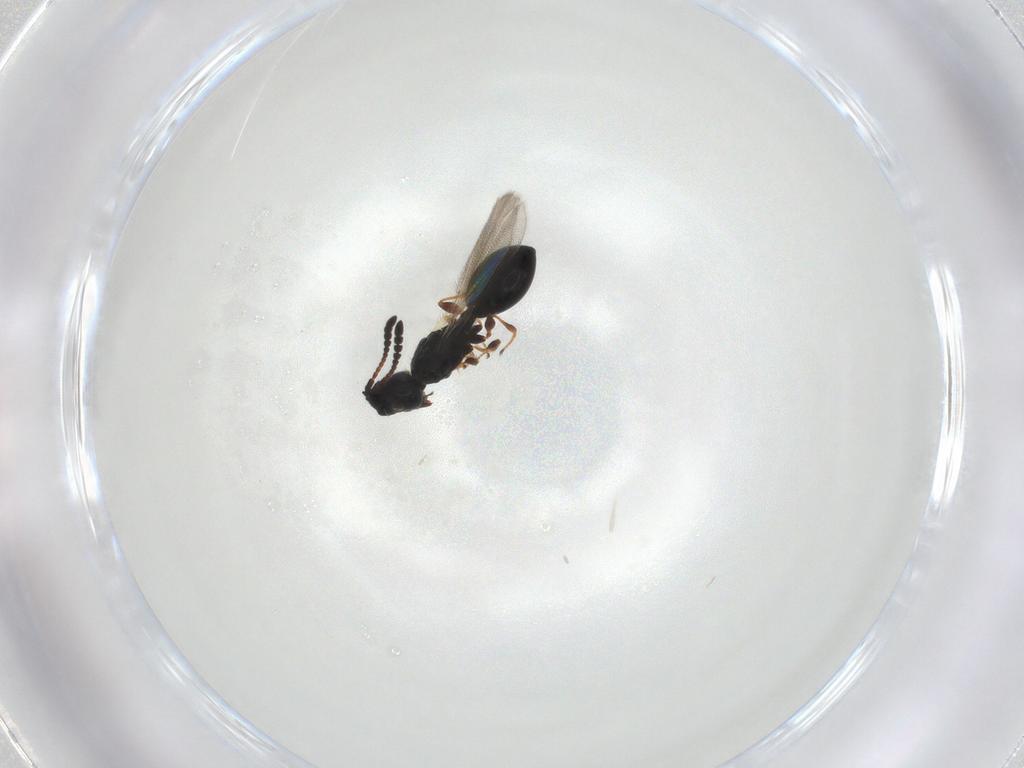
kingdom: Animalia
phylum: Arthropoda
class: Insecta
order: Hymenoptera
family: Diapriidae
